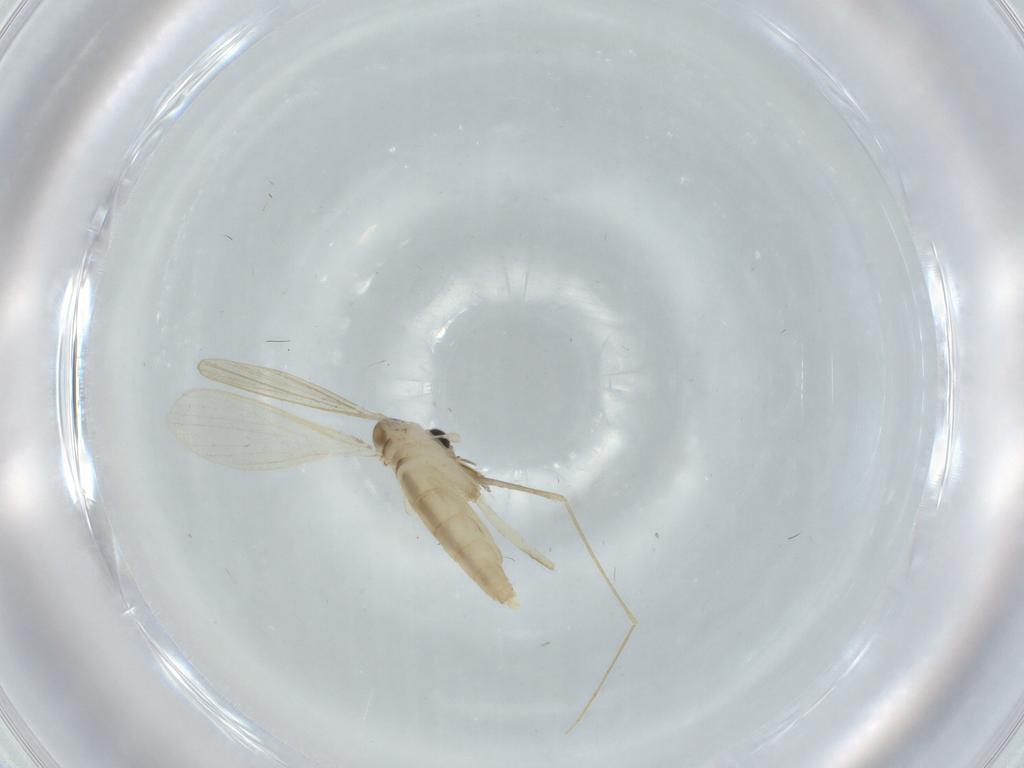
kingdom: Animalia
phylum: Arthropoda
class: Insecta
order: Diptera
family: Psychodidae
